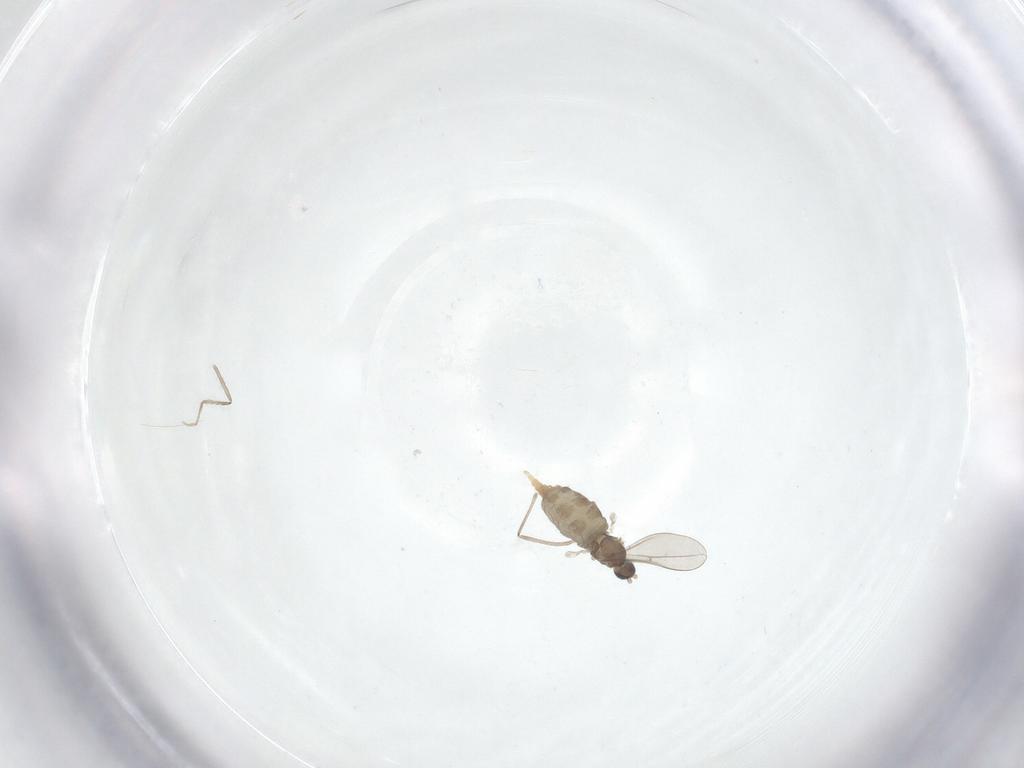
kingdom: Animalia
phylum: Arthropoda
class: Insecta
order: Diptera
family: Cecidomyiidae
